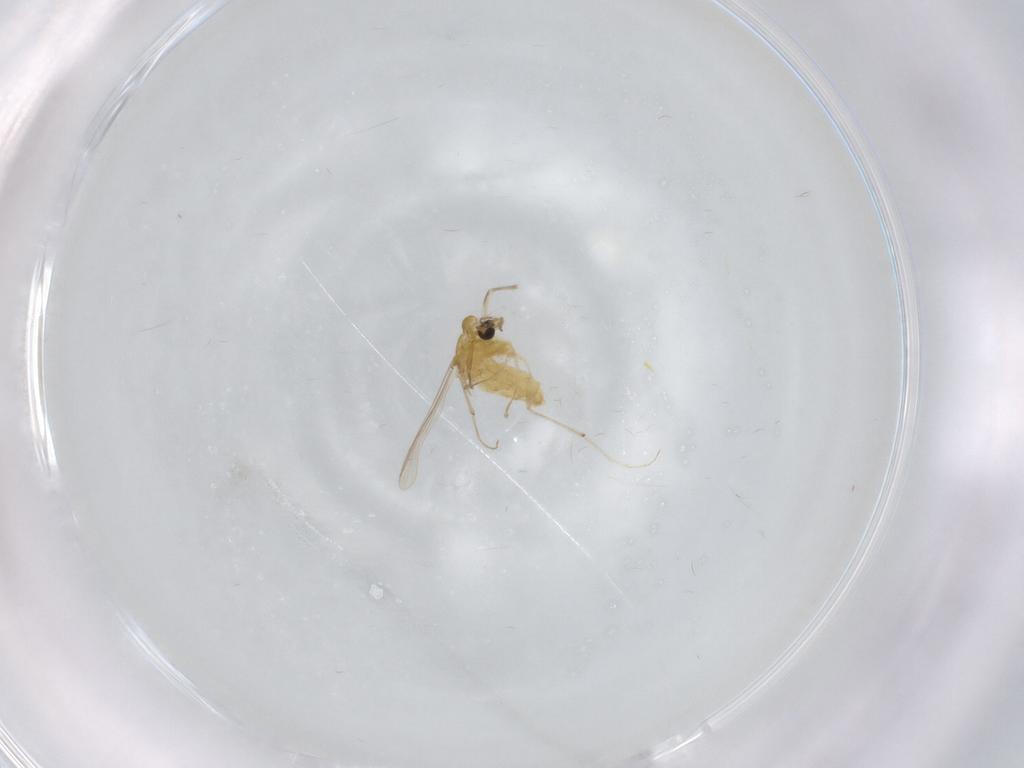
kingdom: Animalia
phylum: Arthropoda
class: Insecta
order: Diptera
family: Chironomidae
